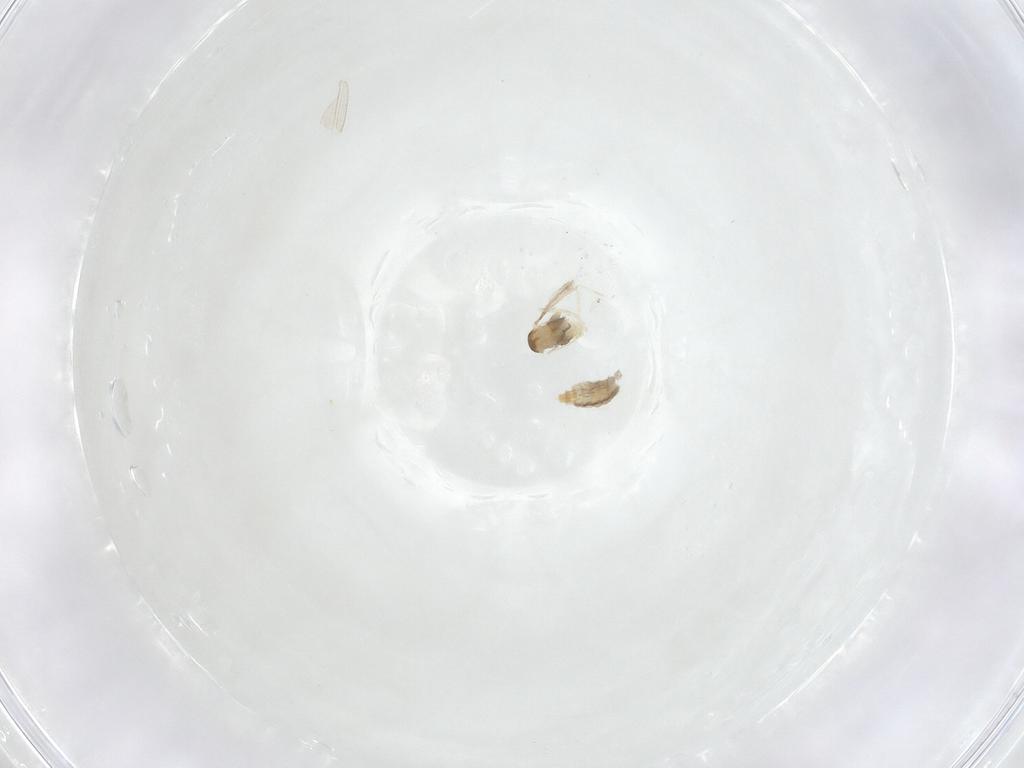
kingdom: Animalia
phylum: Arthropoda
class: Insecta
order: Diptera
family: Cecidomyiidae
